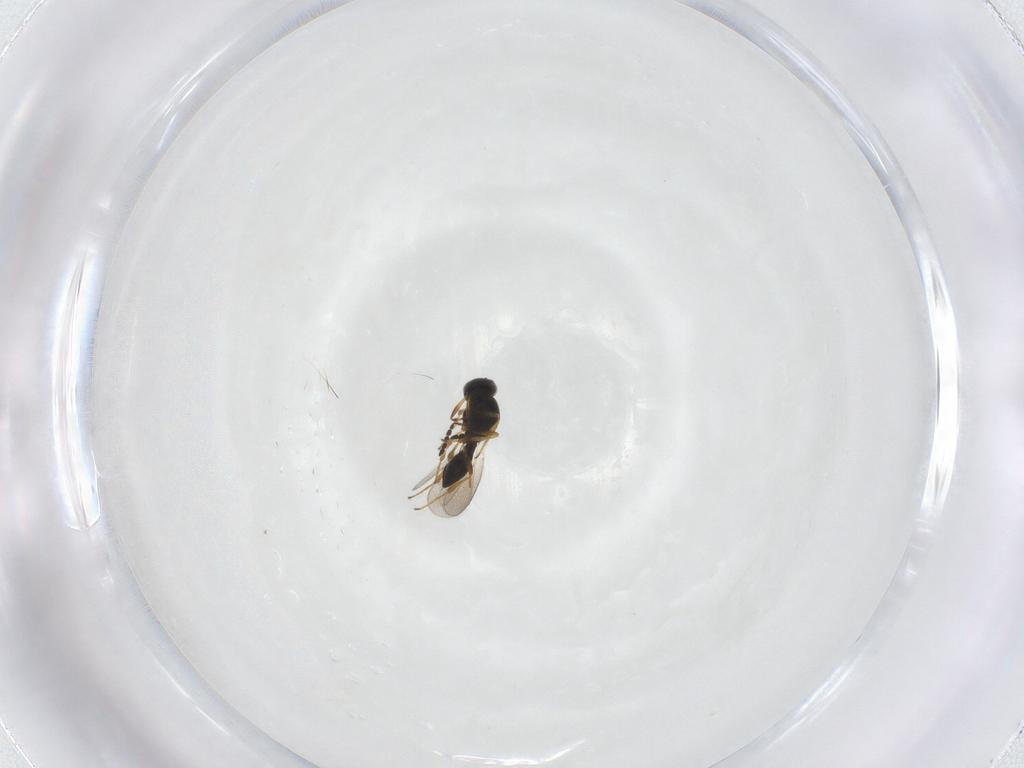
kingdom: Animalia
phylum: Arthropoda
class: Insecta
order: Hymenoptera
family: Platygastridae
